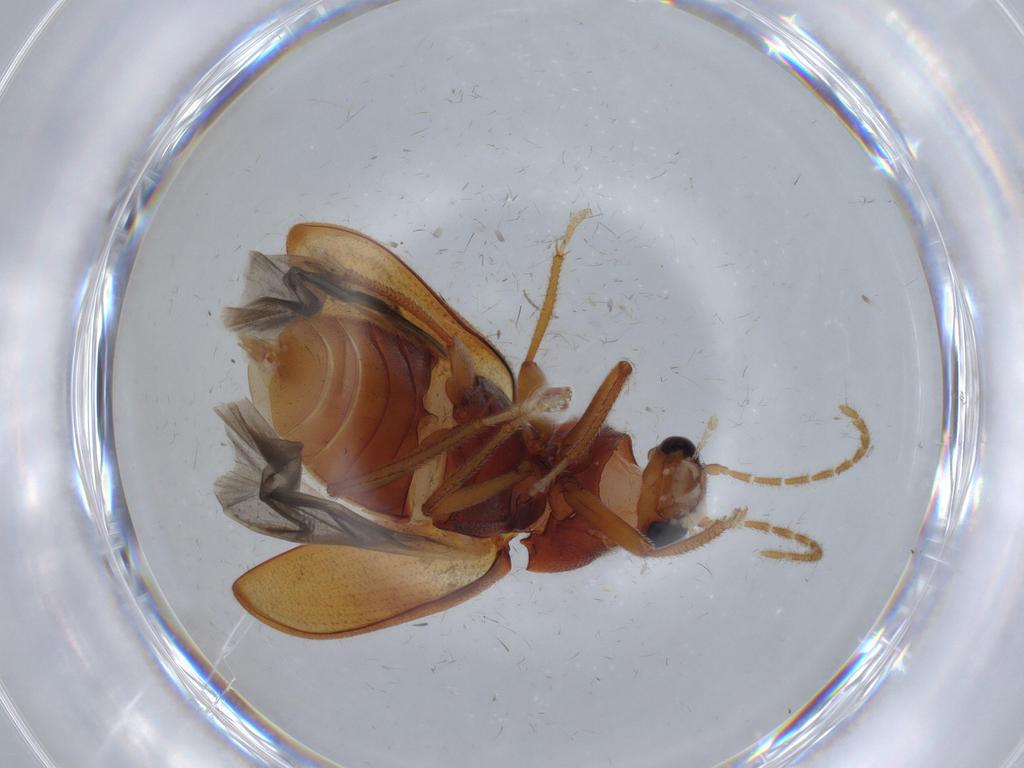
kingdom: Animalia
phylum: Arthropoda
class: Insecta
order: Coleoptera
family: Ptilodactylidae
